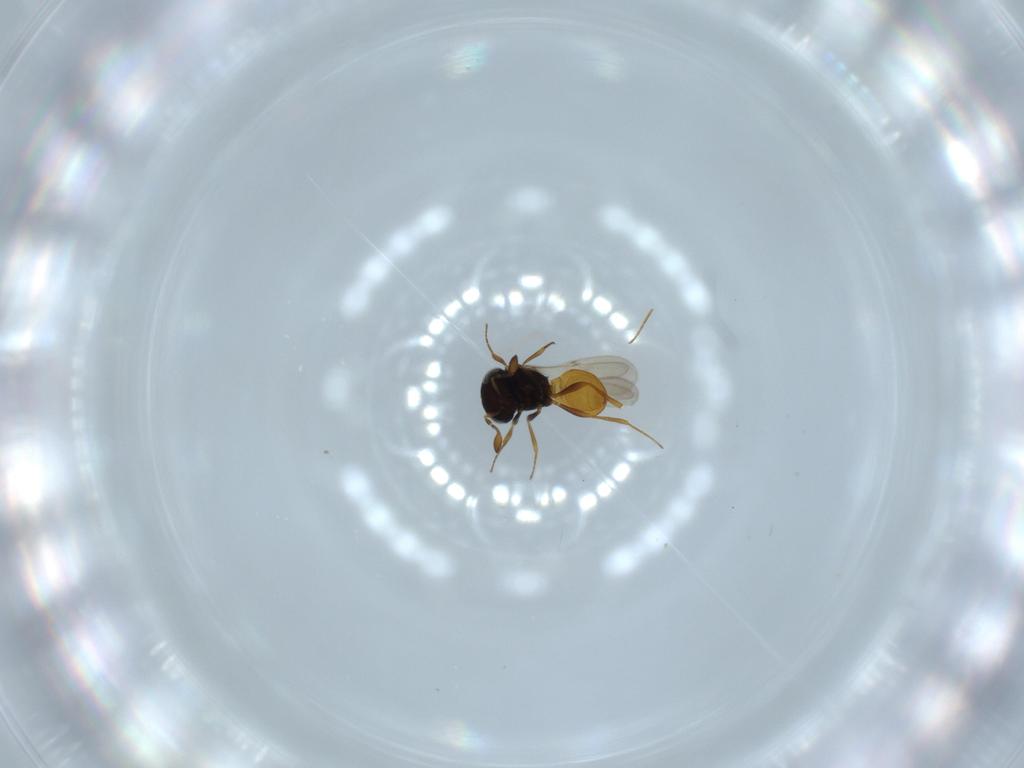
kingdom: Animalia
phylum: Arthropoda
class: Insecta
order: Hymenoptera
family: Scelionidae
